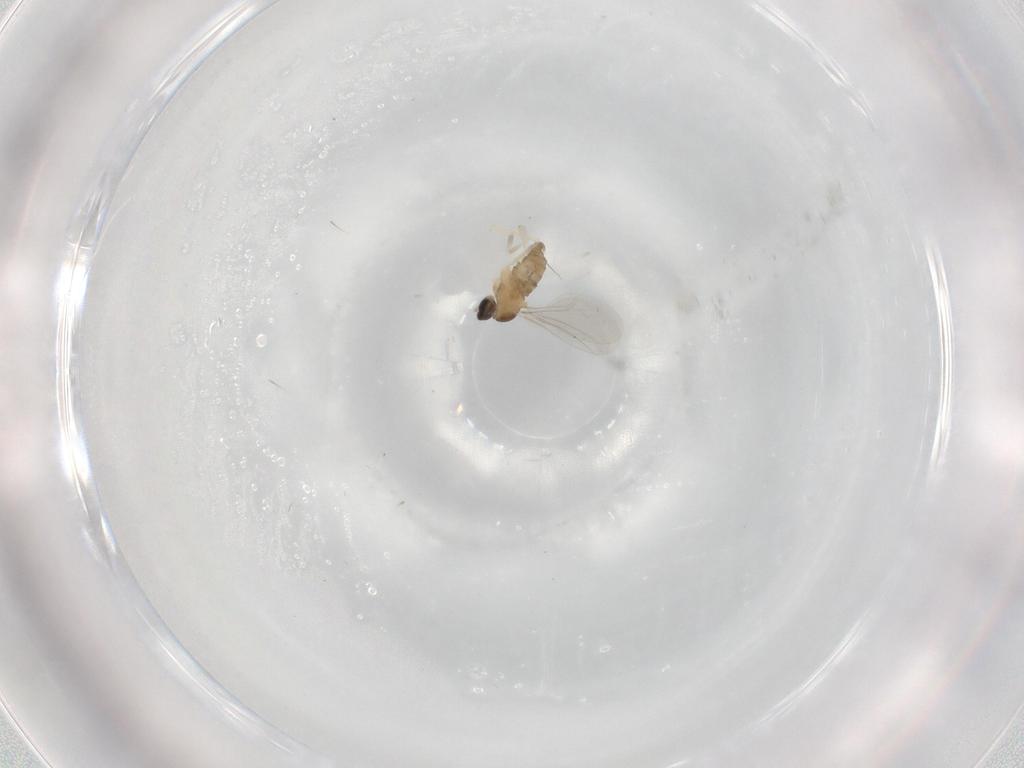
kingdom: Animalia
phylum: Arthropoda
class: Insecta
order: Diptera
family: Cecidomyiidae
